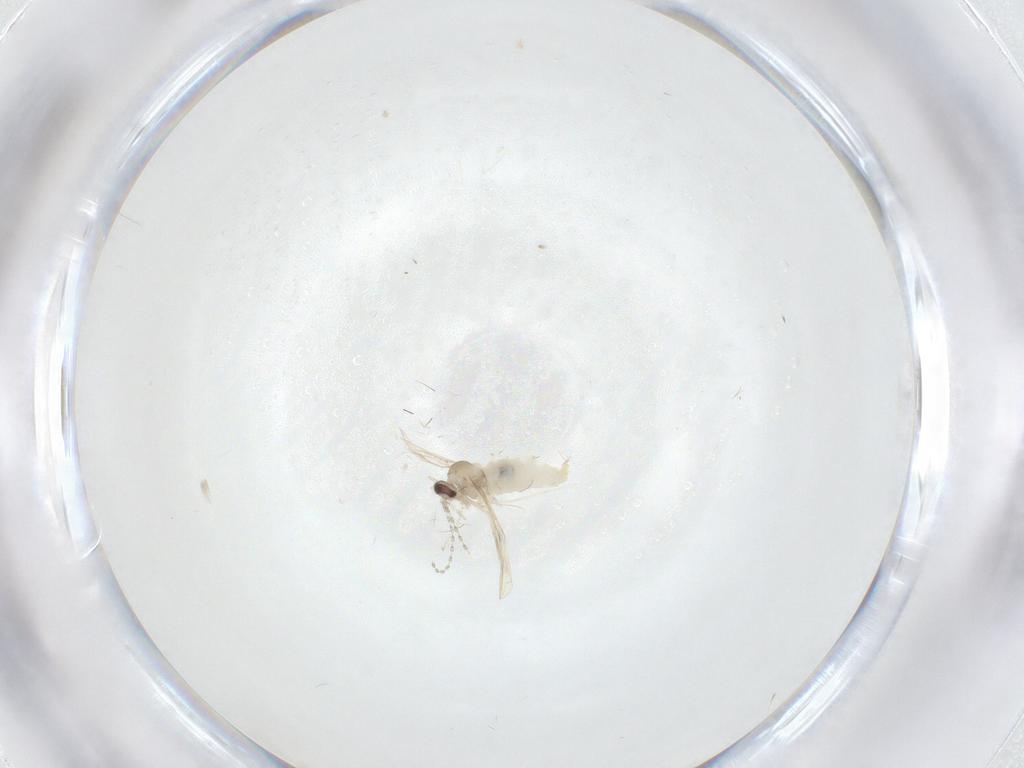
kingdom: Animalia
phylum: Arthropoda
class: Insecta
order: Diptera
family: Cecidomyiidae
